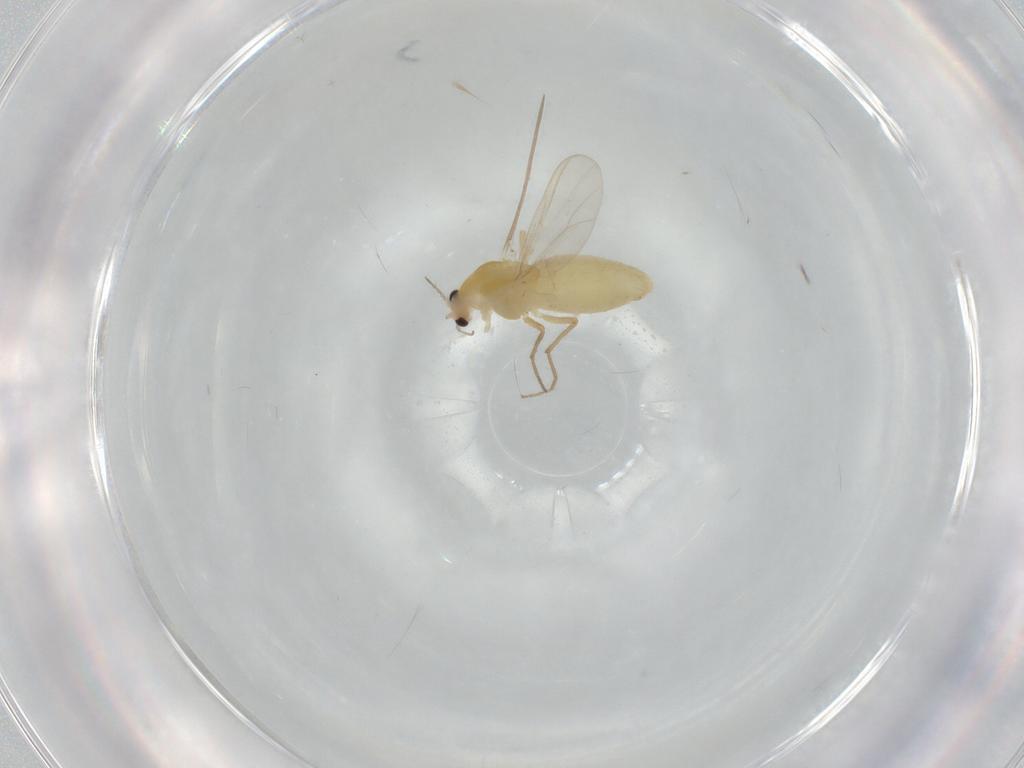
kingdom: Animalia
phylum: Arthropoda
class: Insecta
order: Diptera
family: Chironomidae
